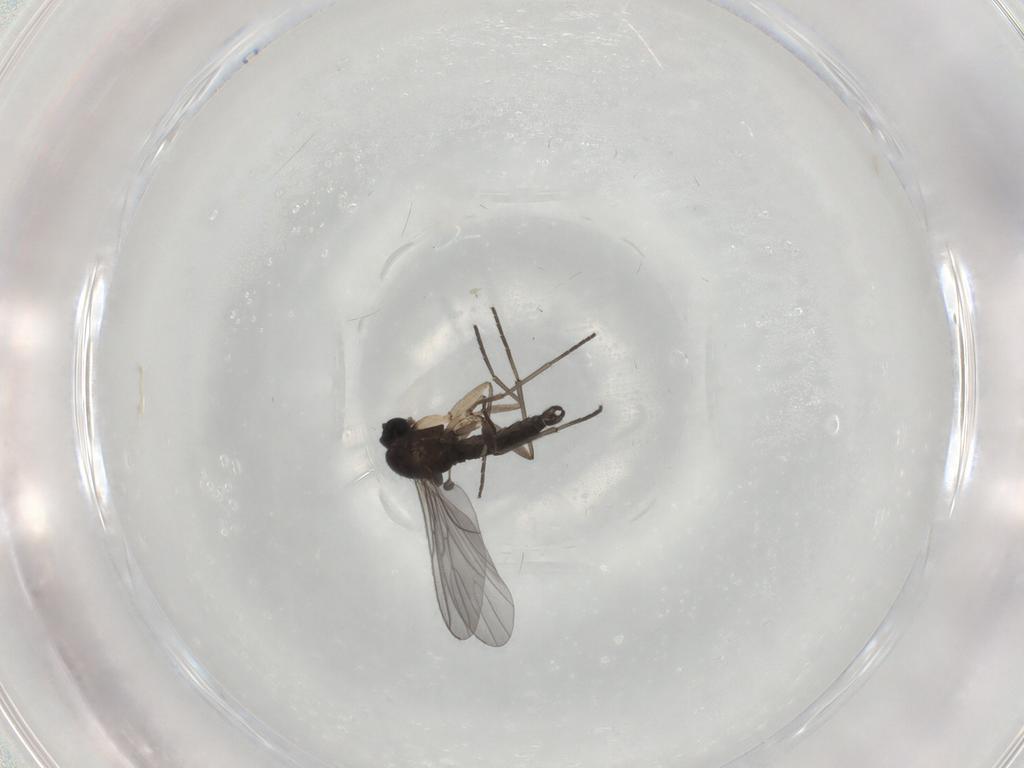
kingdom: Animalia
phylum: Arthropoda
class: Insecta
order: Diptera
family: Sciaridae
